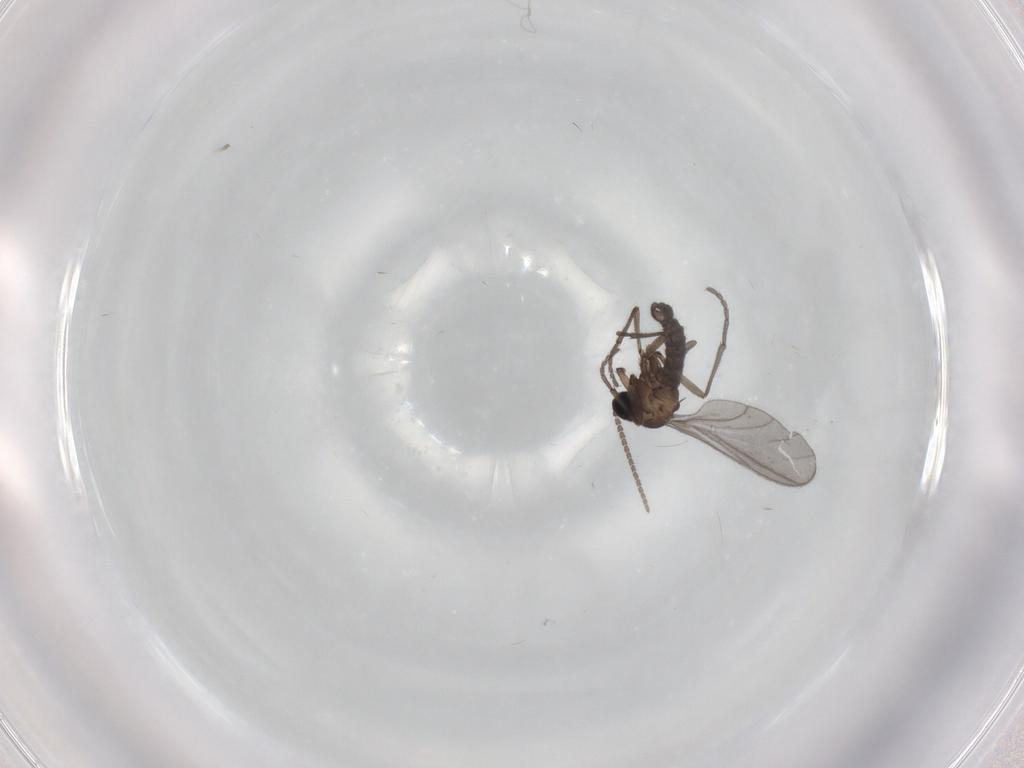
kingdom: Animalia
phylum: Arthropoda
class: Insecta
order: Diptera
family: Sciaridae
